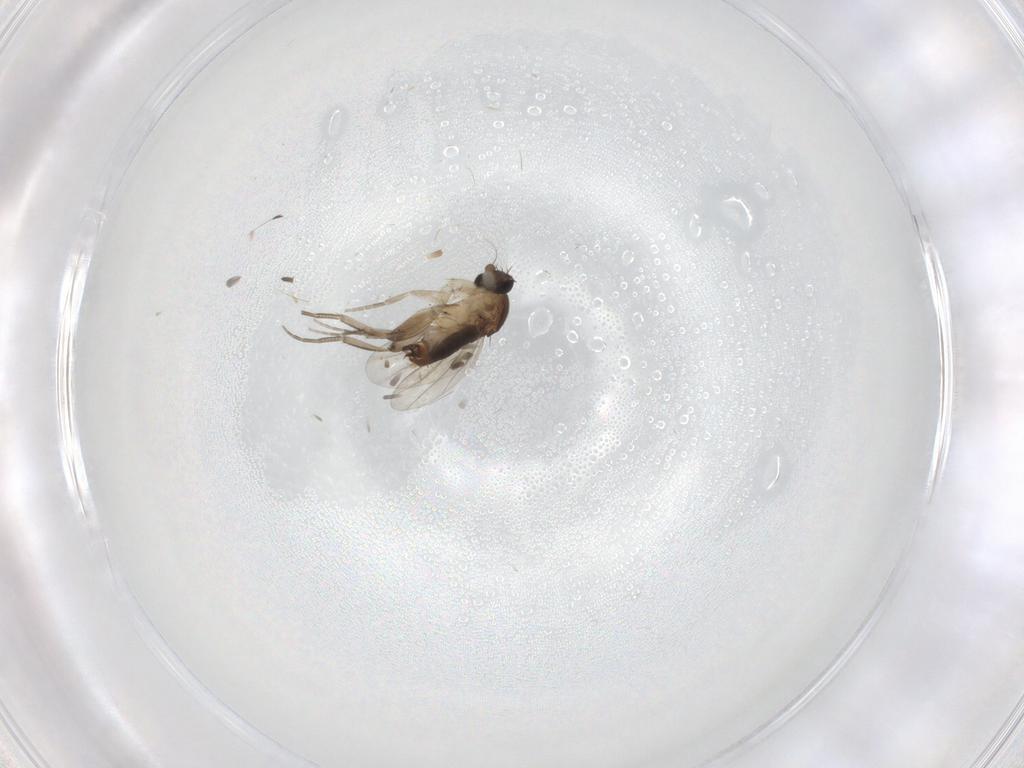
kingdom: Animalia
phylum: Arthropoda
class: Insecta
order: Diptera
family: Phoridae
